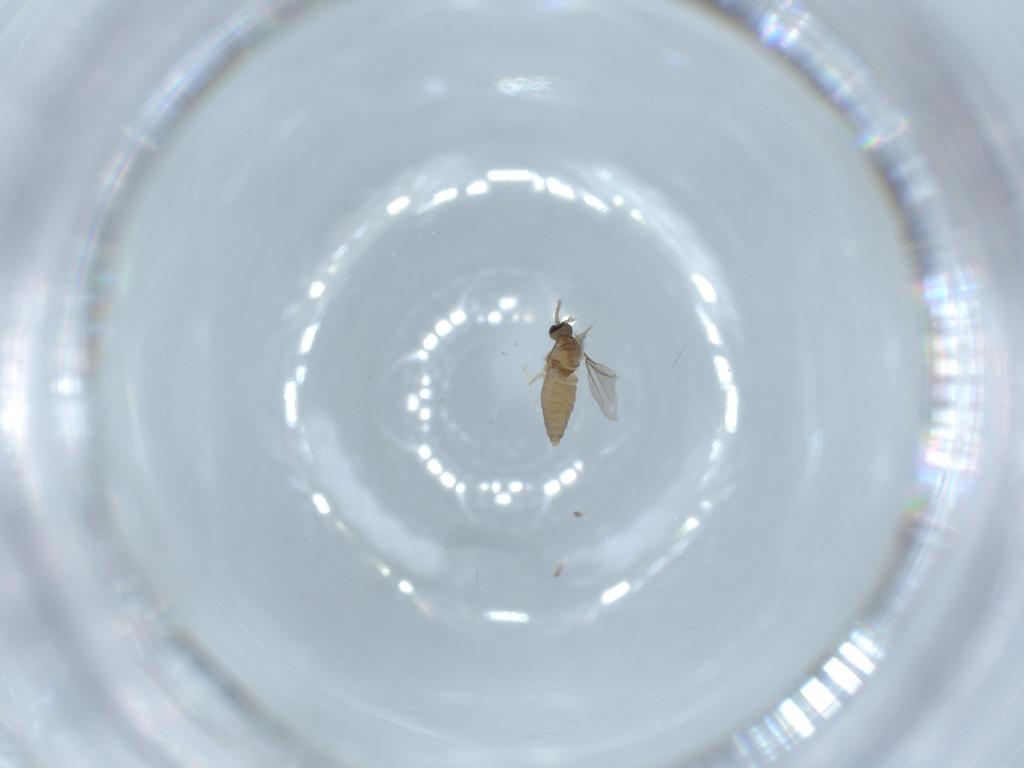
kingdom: Animalia
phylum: Arthropoda
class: Insecta
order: Diptera
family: Cecidomyiidae
